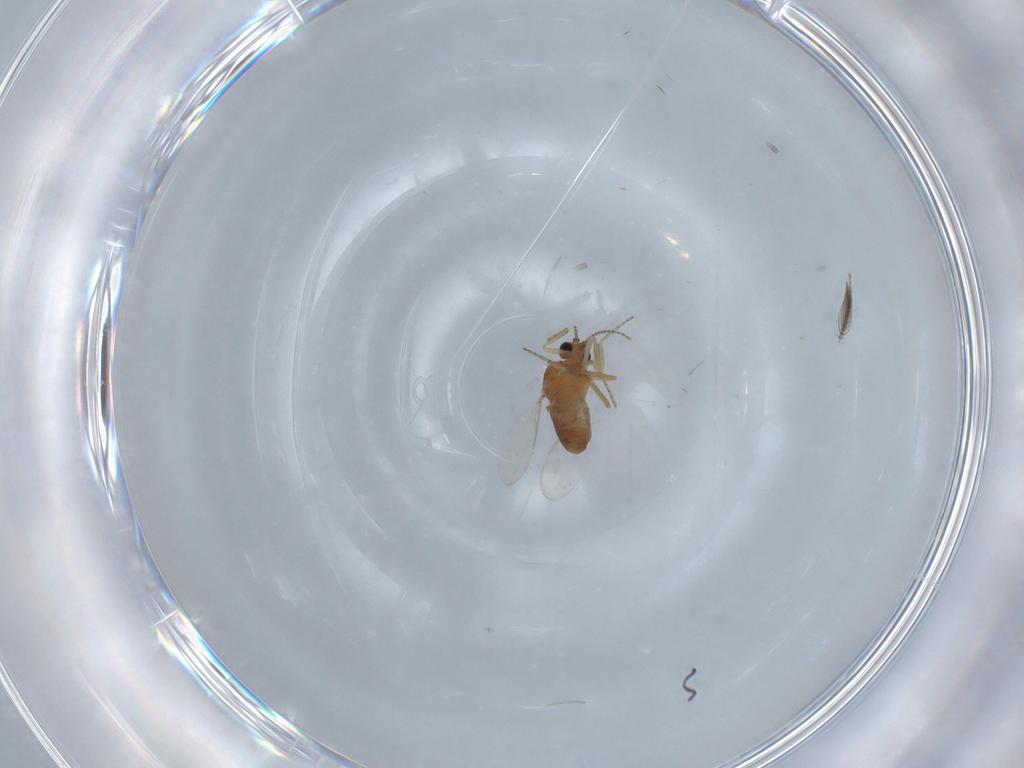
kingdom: Animalia
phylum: Arthropoda
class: Insecta
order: Diptera
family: Ceratopogonidae
